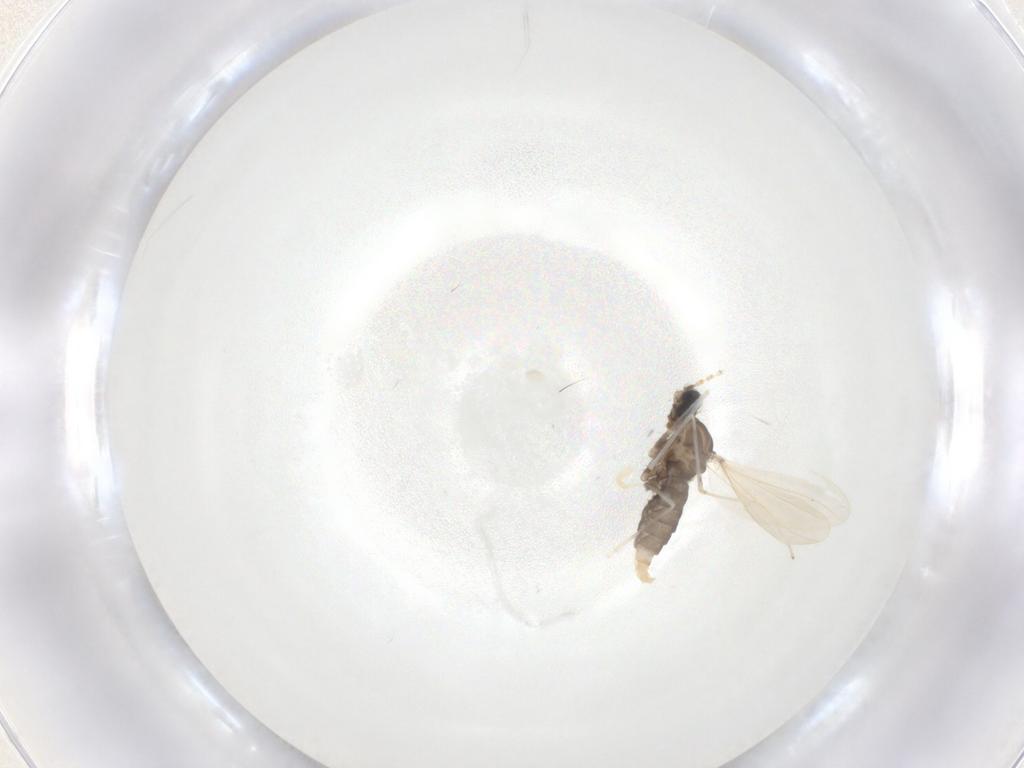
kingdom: Animalia
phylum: Arthropoda
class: Insecta
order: Diptera
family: Cecidomyiidae
